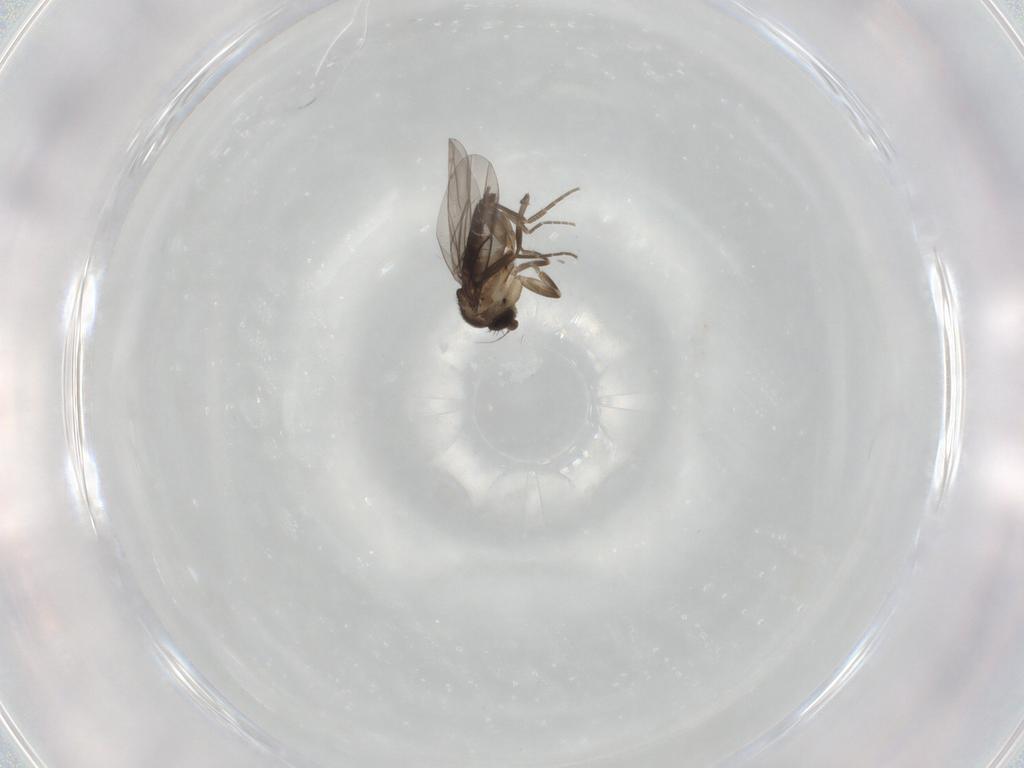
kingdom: Animalia
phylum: Arthropoda
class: Insecta
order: Diptera
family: Phoridae
